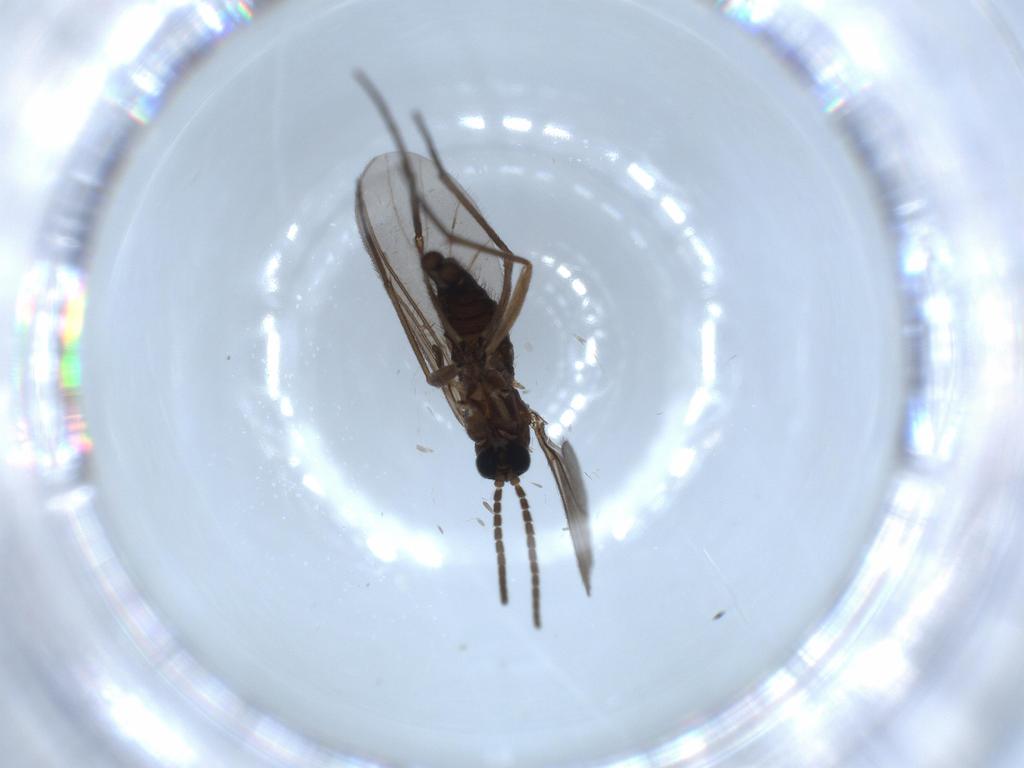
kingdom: Animalia
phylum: Arthropoda
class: Insecta
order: Diptera
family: Sciaridae
